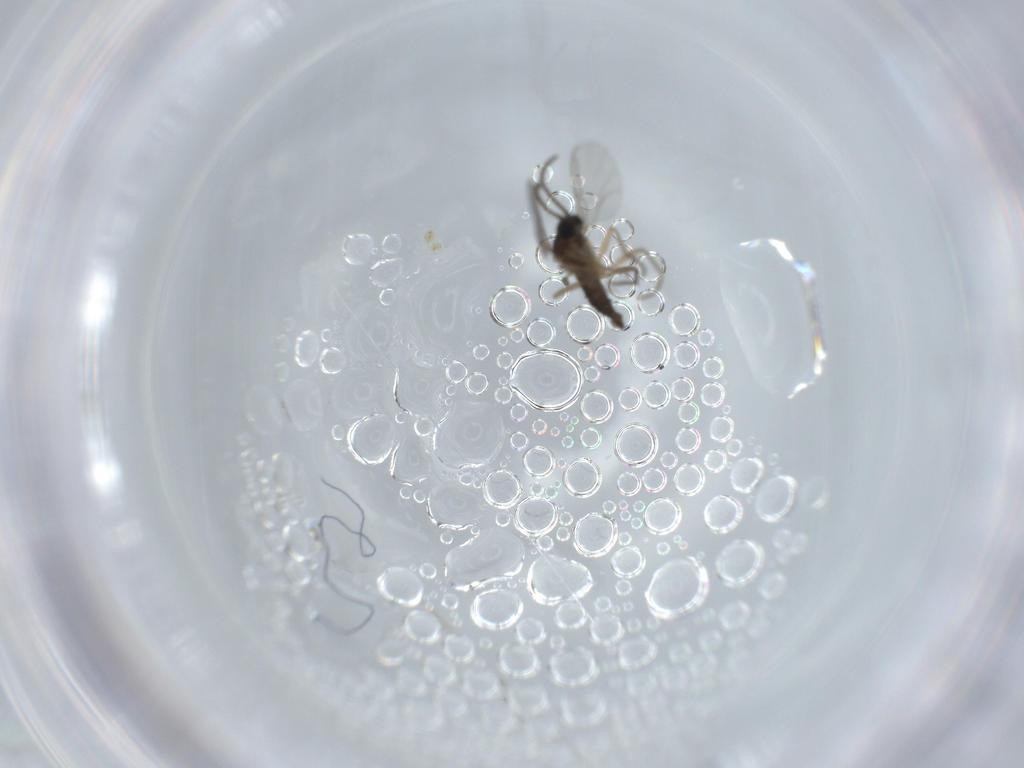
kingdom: Animalia
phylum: Arthropoda
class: Insecta
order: Diptera
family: Sciaridae
